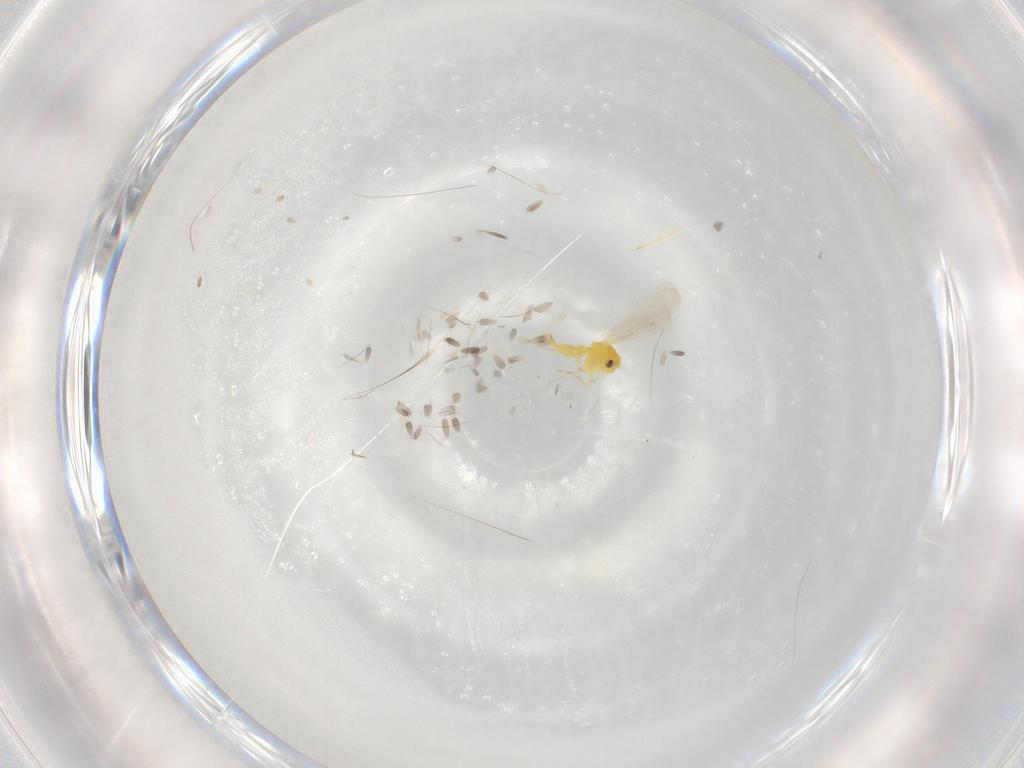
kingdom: Animalia
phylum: Arthropoda
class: Insecta
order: Hemiptera
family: Aleyrodidae
